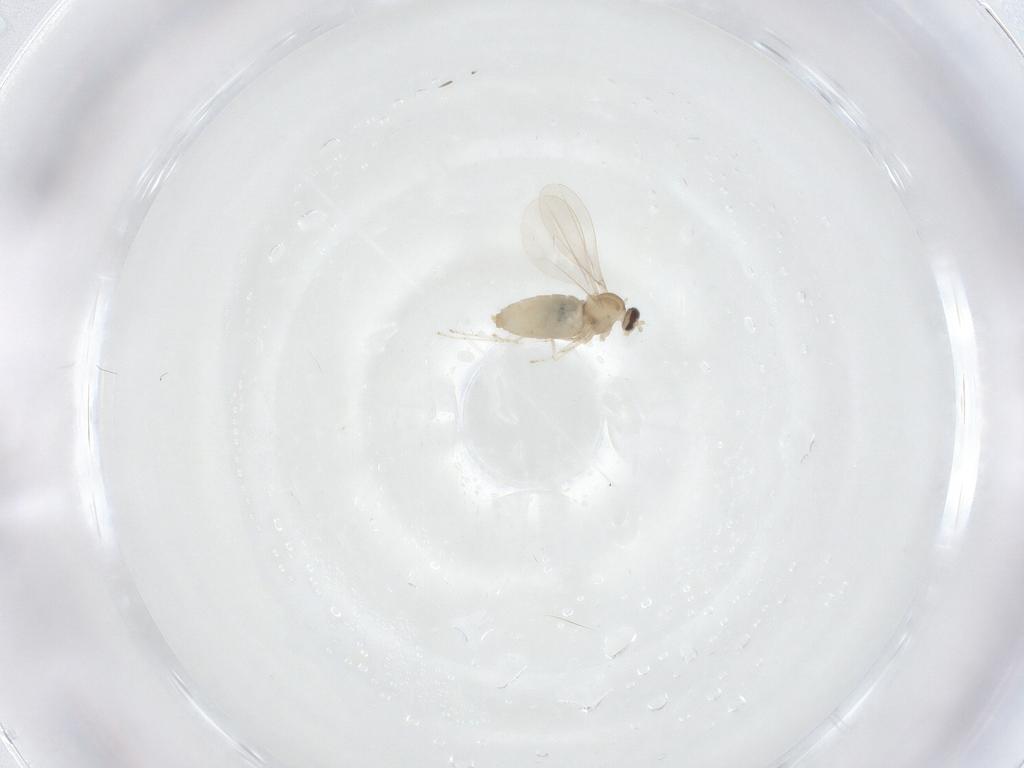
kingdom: Animalia
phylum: Arthropoda
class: Insecta
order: Diptera
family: Cecidomyiidae
